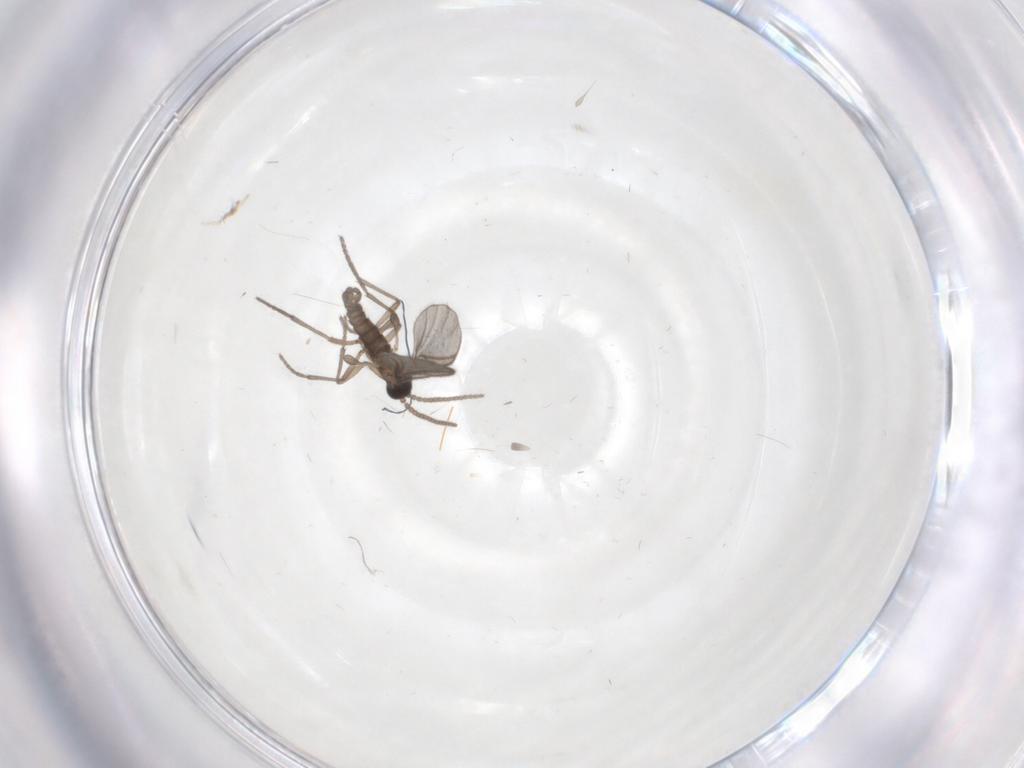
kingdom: Animalia
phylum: Arthropoda
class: Insecta
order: Diptera
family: Sciaridae
